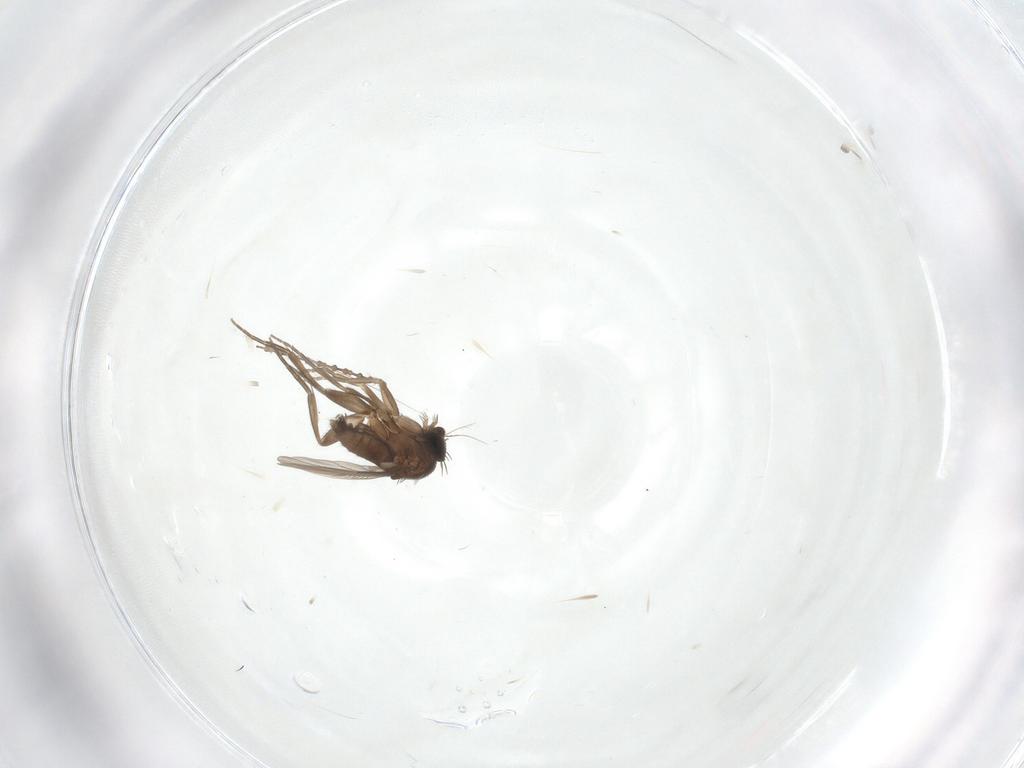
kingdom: Animalia
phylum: Arthropoda
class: Insecta
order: Diptera
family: Phoridae
